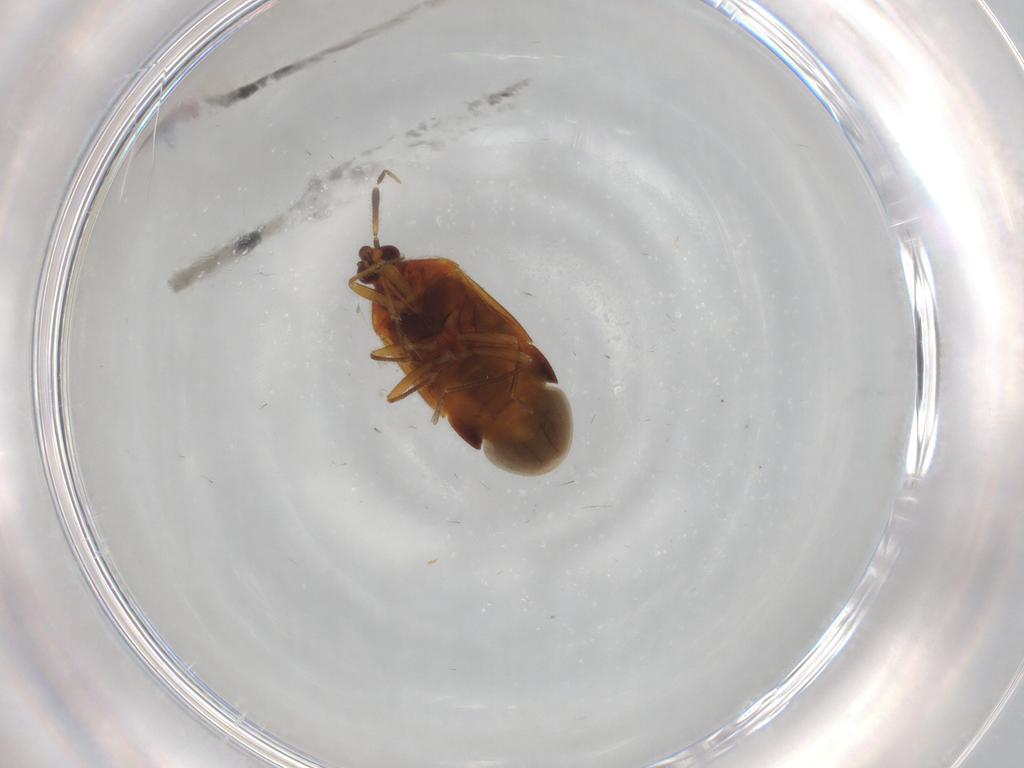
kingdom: Animalia
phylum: Arthropoda
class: Insecta
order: Hemiptera
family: Anthocoridae
